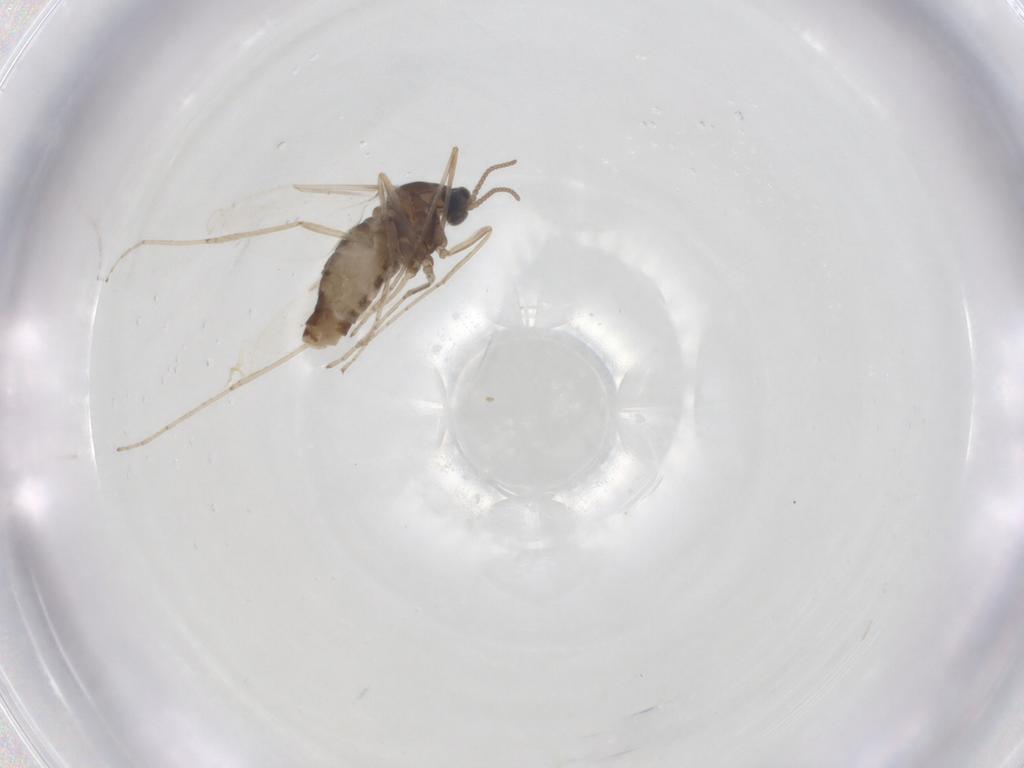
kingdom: Animalia
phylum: Arthropoda
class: Insecta
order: Diptera
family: Cecidomyiidae
